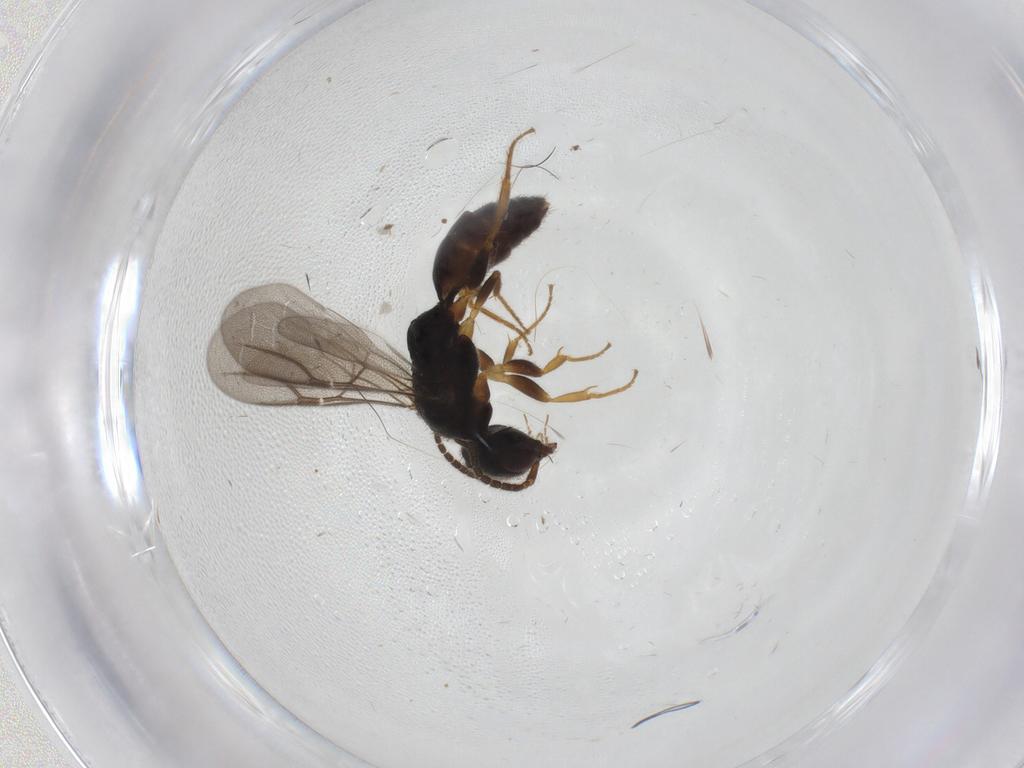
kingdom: Animalia
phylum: Arthropoda
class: Insecta
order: Hymenoptera
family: Bethylidae
